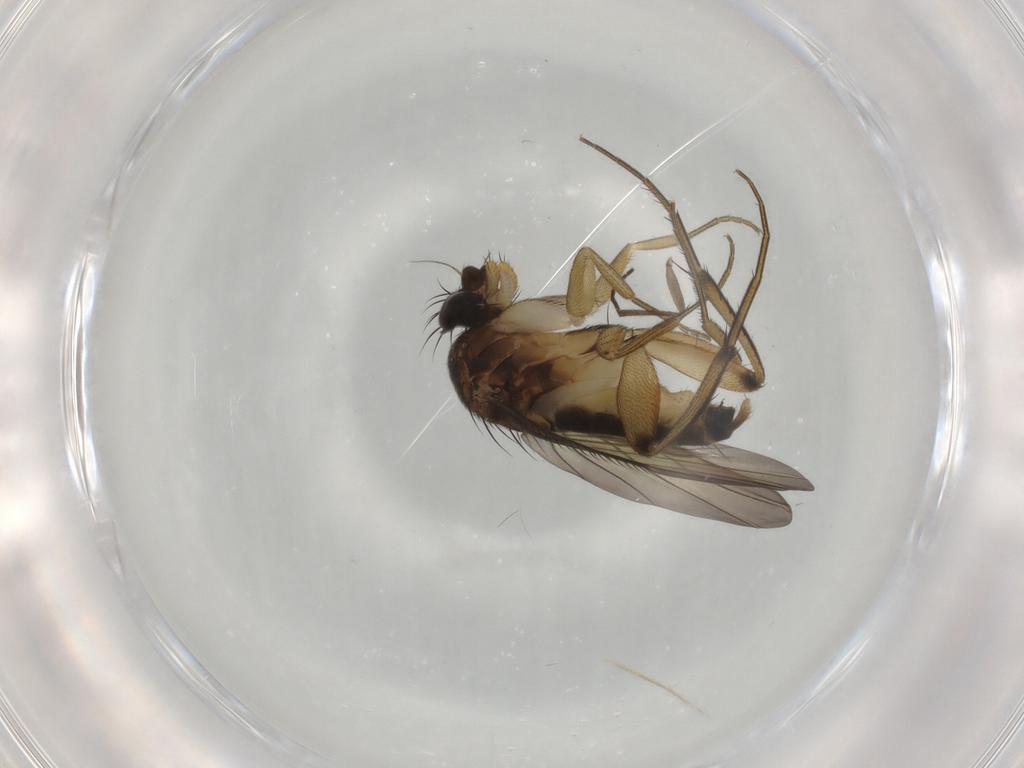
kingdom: Animalia
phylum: Arthropoda
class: Insecta
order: Diptera
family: Phoridae
